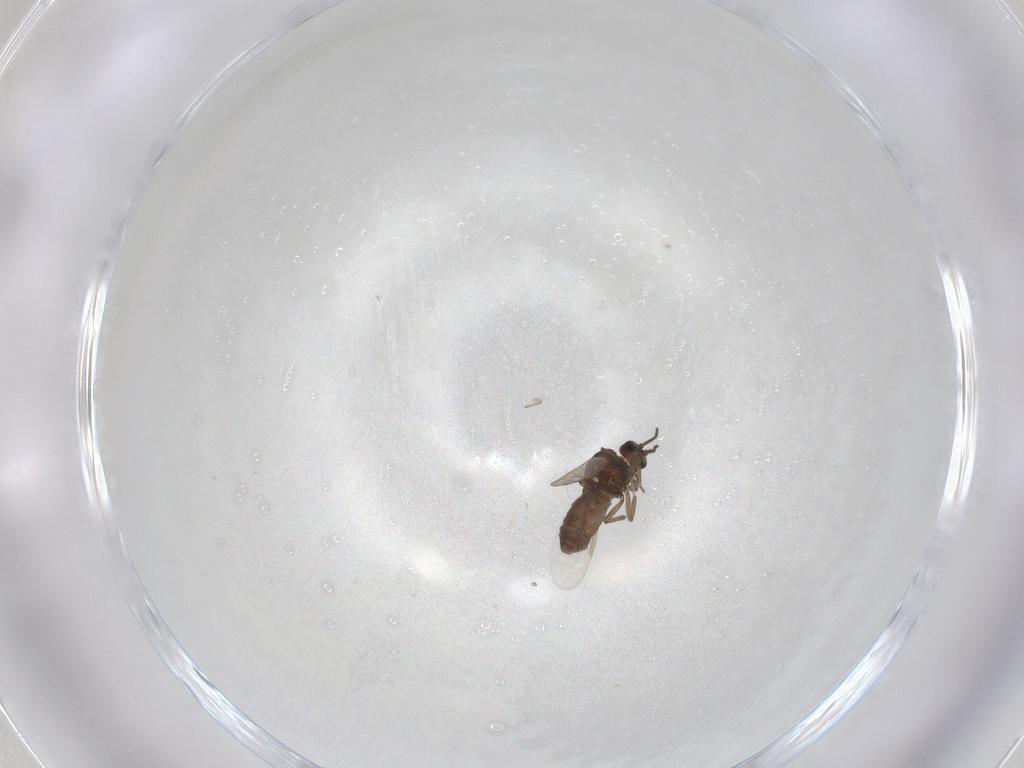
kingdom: Animalia
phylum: Arthropoda
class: Insecta
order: Diptera
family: Ceratopogonidae
